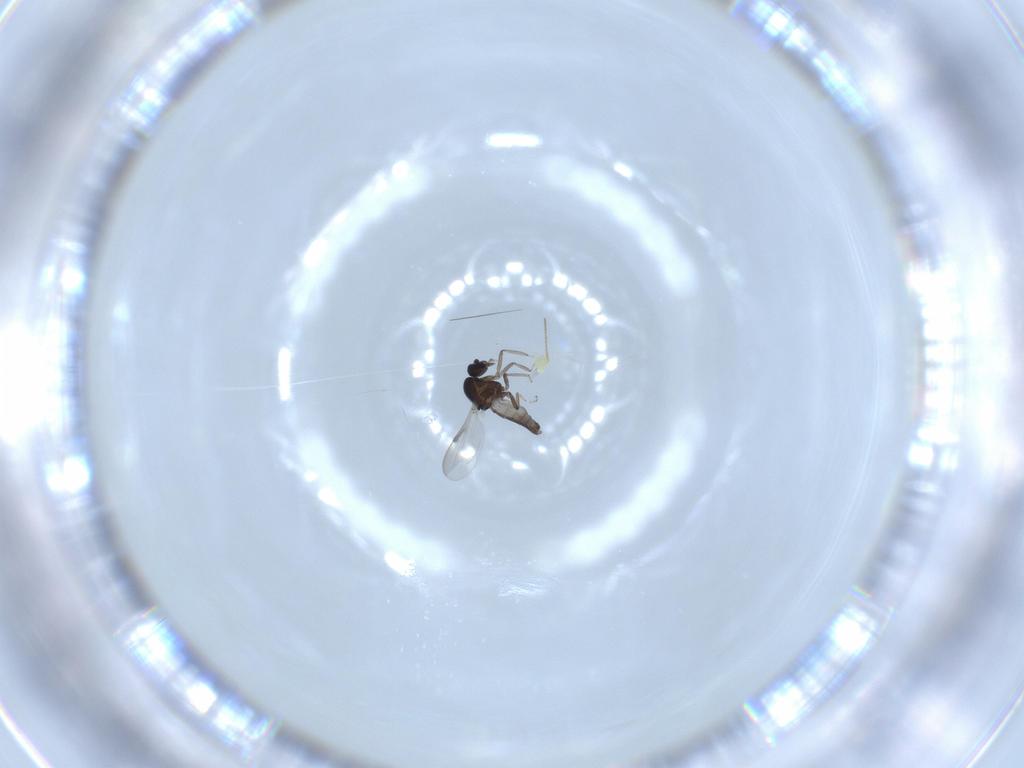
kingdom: Animalia
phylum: Arthropoda
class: Insecta
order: Diptera
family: Ceratopogonidae
